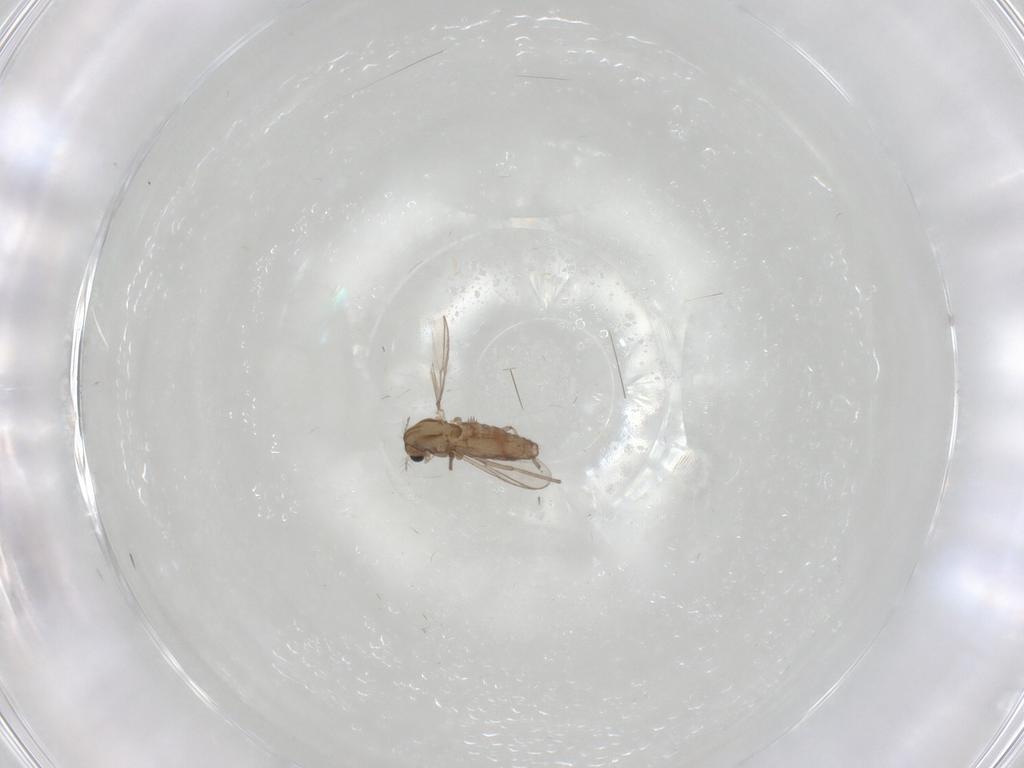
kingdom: Animalia
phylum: Arthropoda
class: Insecta
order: Diptera
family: Chironomidae
